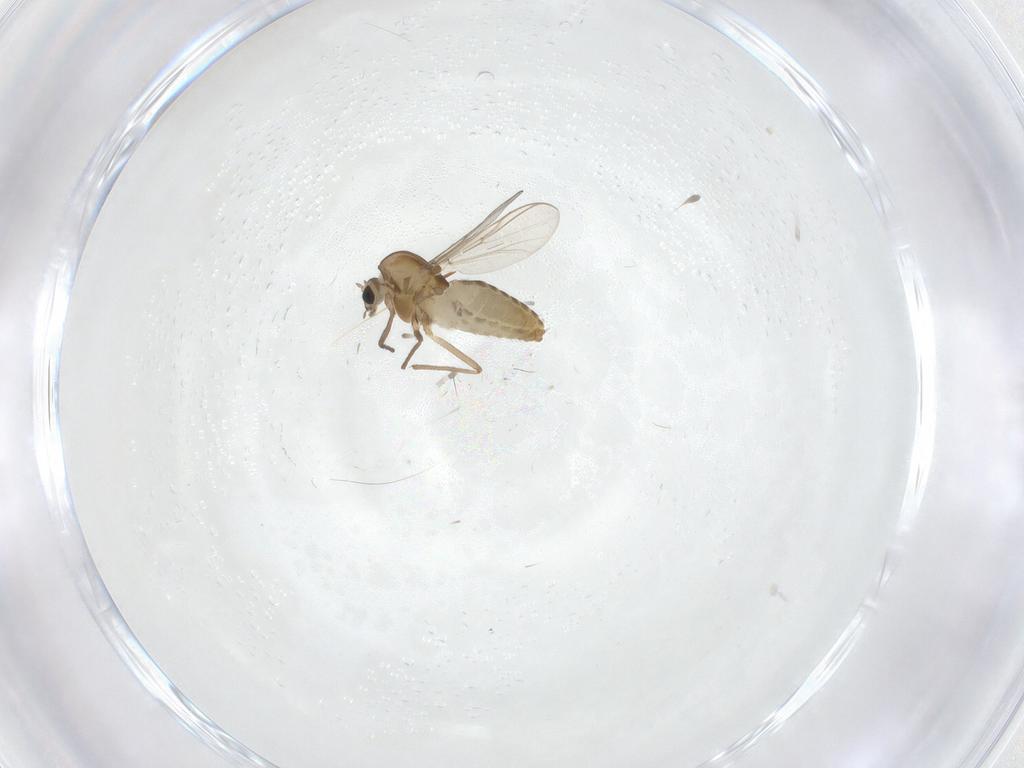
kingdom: Animalia
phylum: Arthropoda
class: Insecta
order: Diptera
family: Chironomidae
